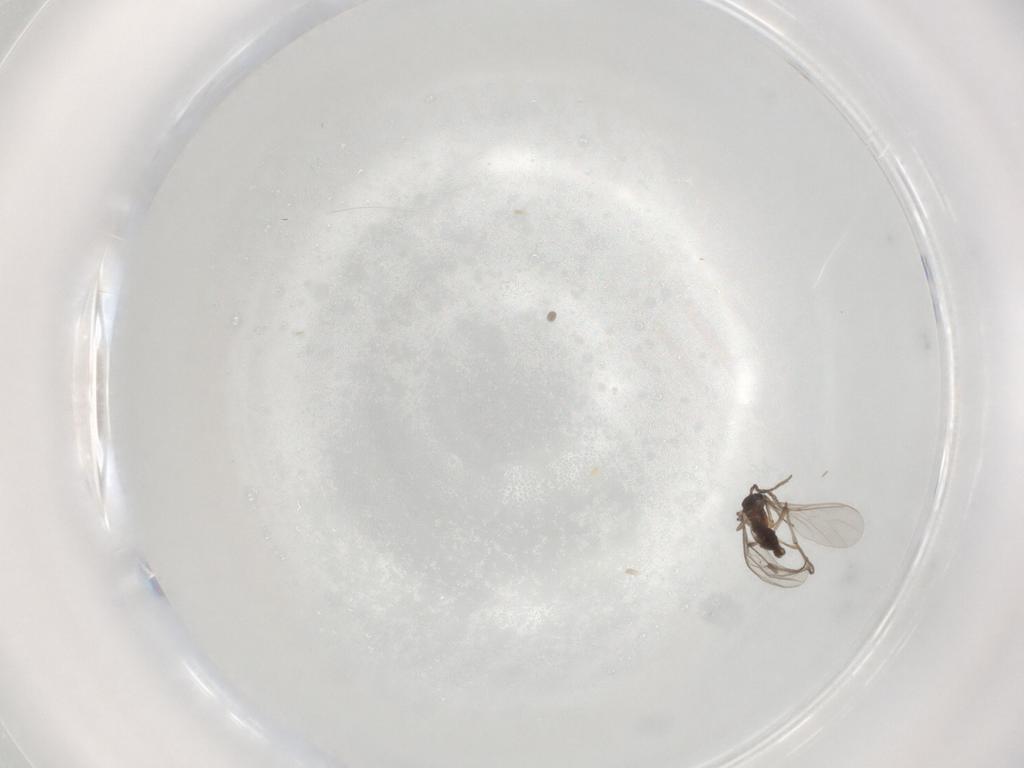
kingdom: Animalia
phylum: Arthropoda
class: Insecta
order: Diptera
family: Ceratopogonidae
